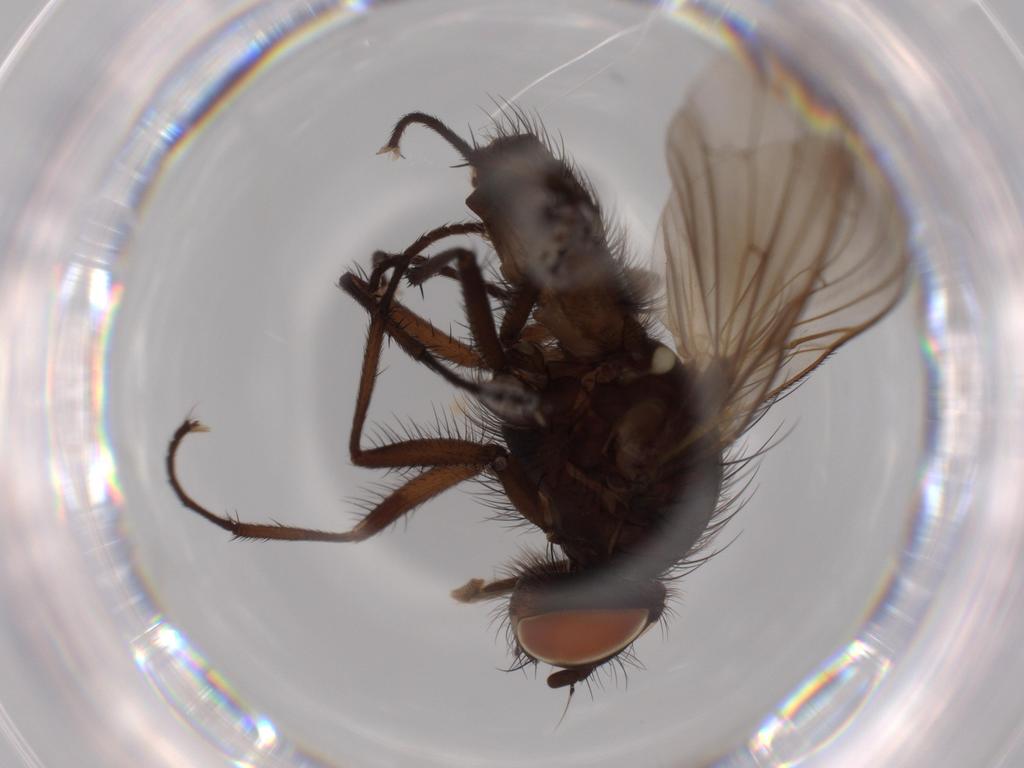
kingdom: Animalia
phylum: Arthropoda
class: Insecta
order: Diptera
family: Anthomyiidae
